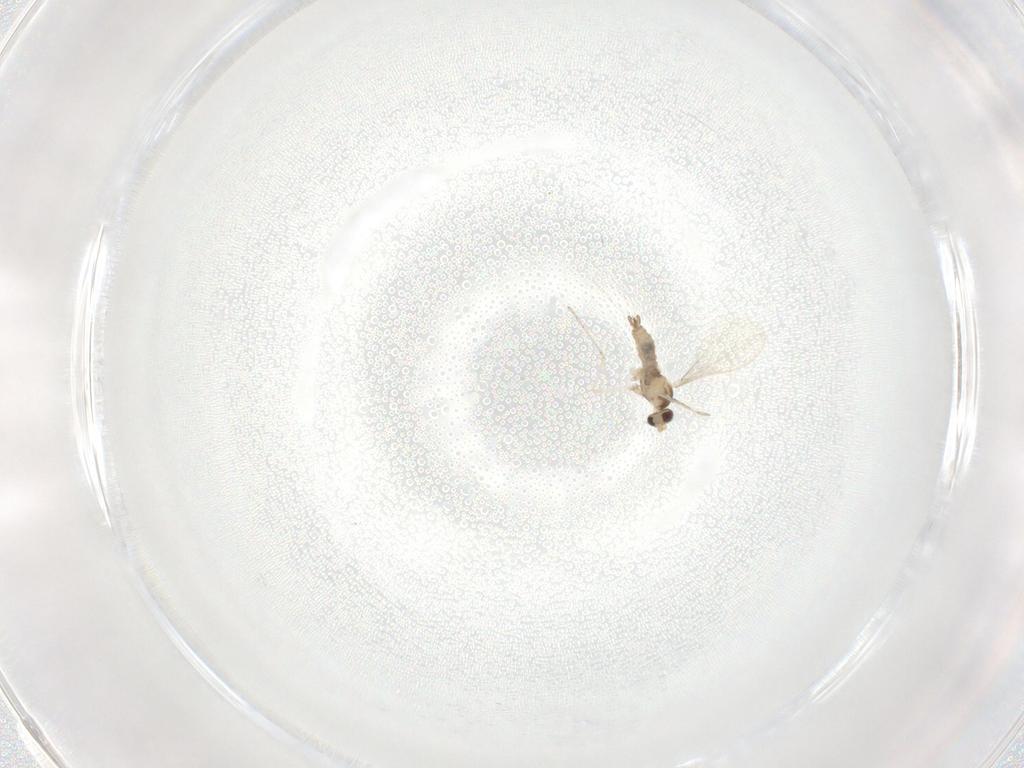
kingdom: Animalia
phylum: Arthropoda
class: Insecta
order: Diptera
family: Cecidomyiidae
